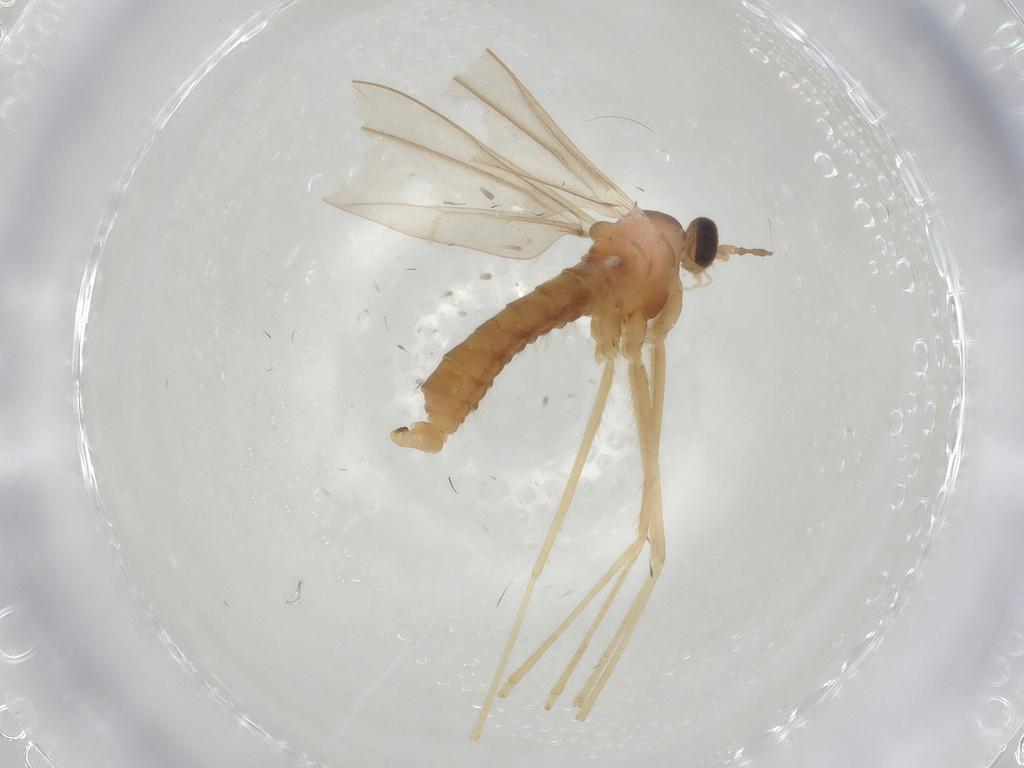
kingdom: Animalia
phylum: Arthropoda
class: Insecta
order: Diptera
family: Cecidomyiidae
